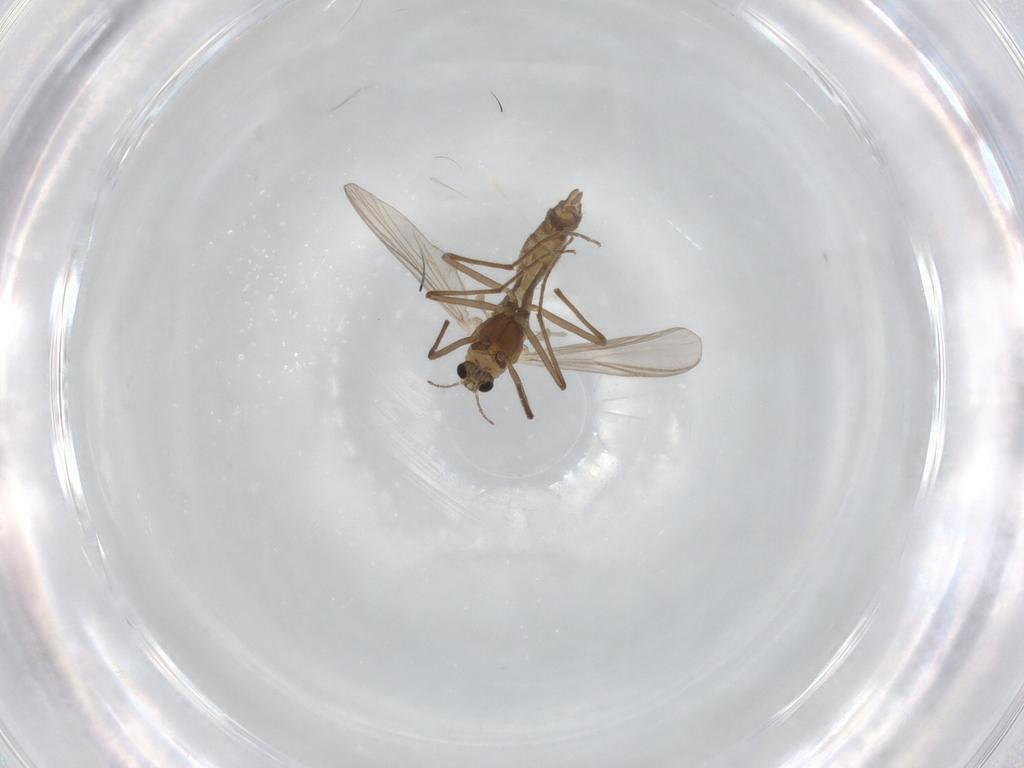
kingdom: Animalia
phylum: Arthropoda
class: Insecta
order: Diptera
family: Chironomidae
